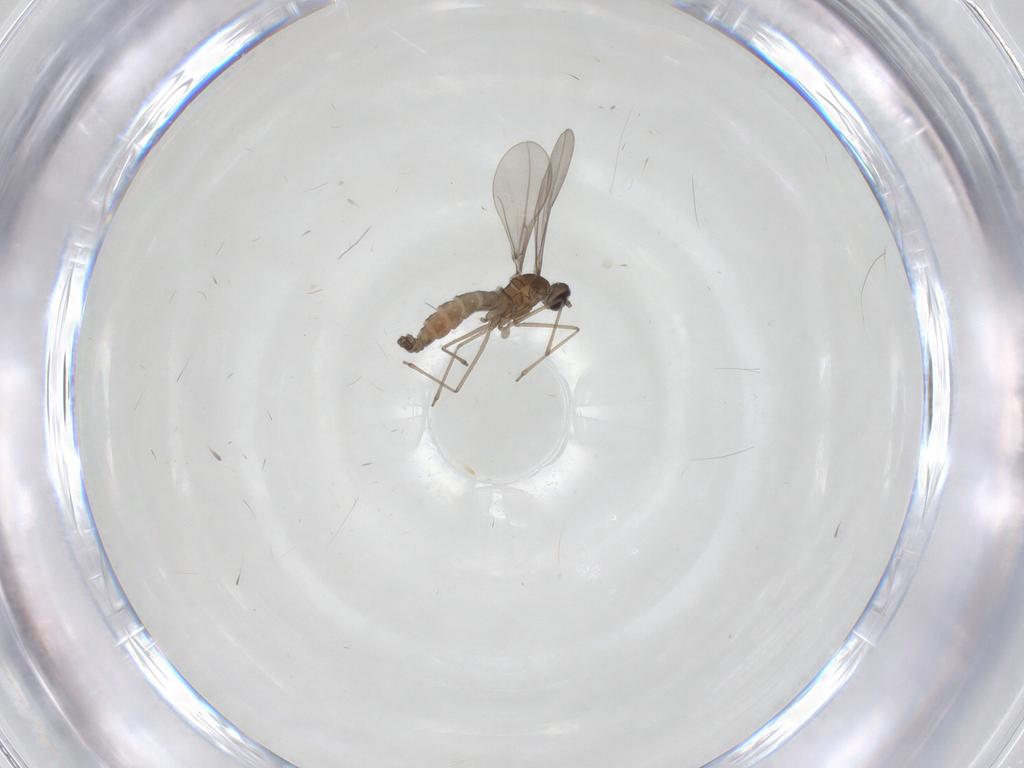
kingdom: Animalia
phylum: Arthropoda
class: Insecta
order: Diptera
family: Cecidomyiidae
